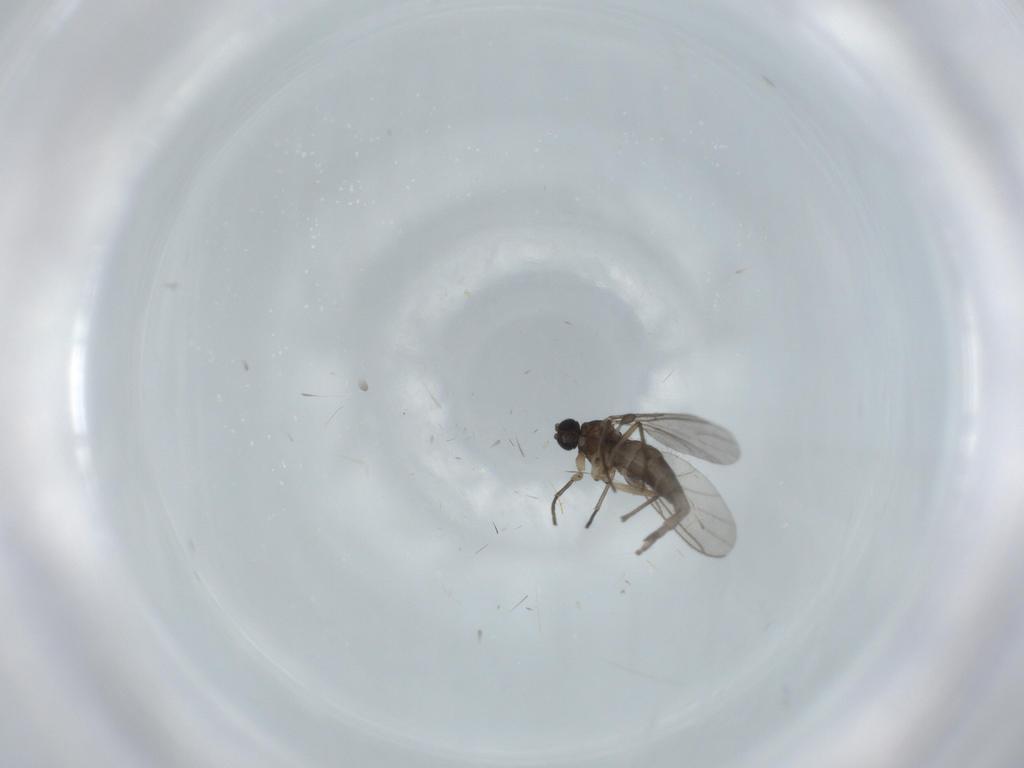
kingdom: Animalia
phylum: Arthropoda
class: Insecta
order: Diptera
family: Sciaridae
